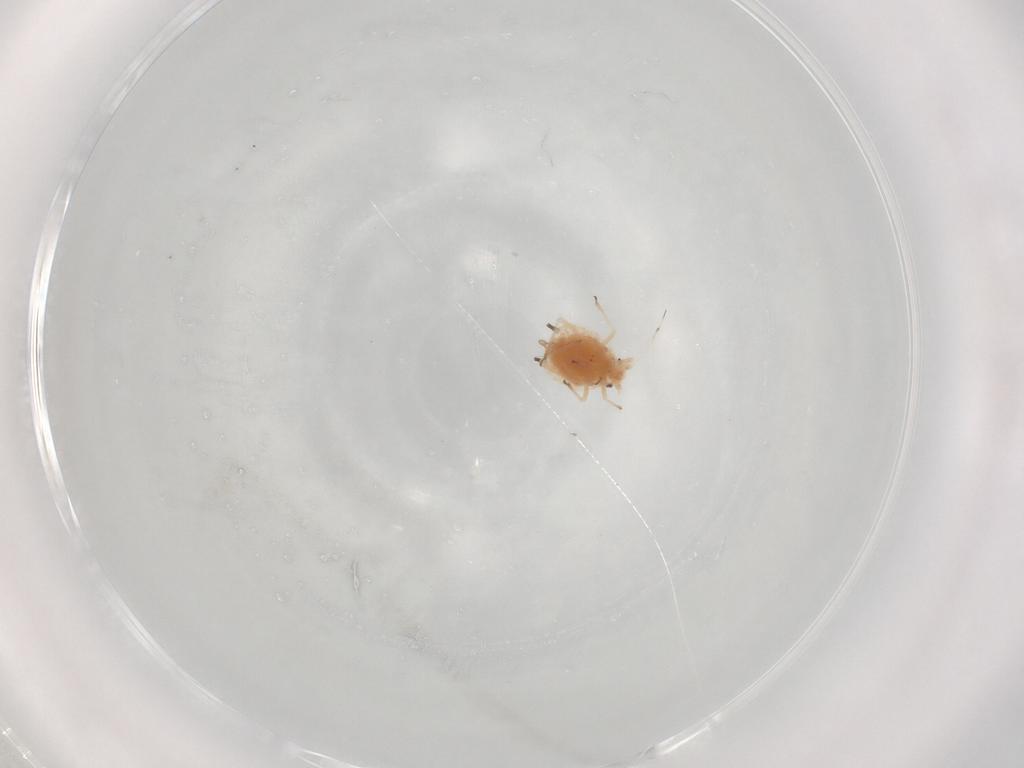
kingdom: Animalia
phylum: Arthropoda
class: Insecta
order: Hemiptera
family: Aphididae
